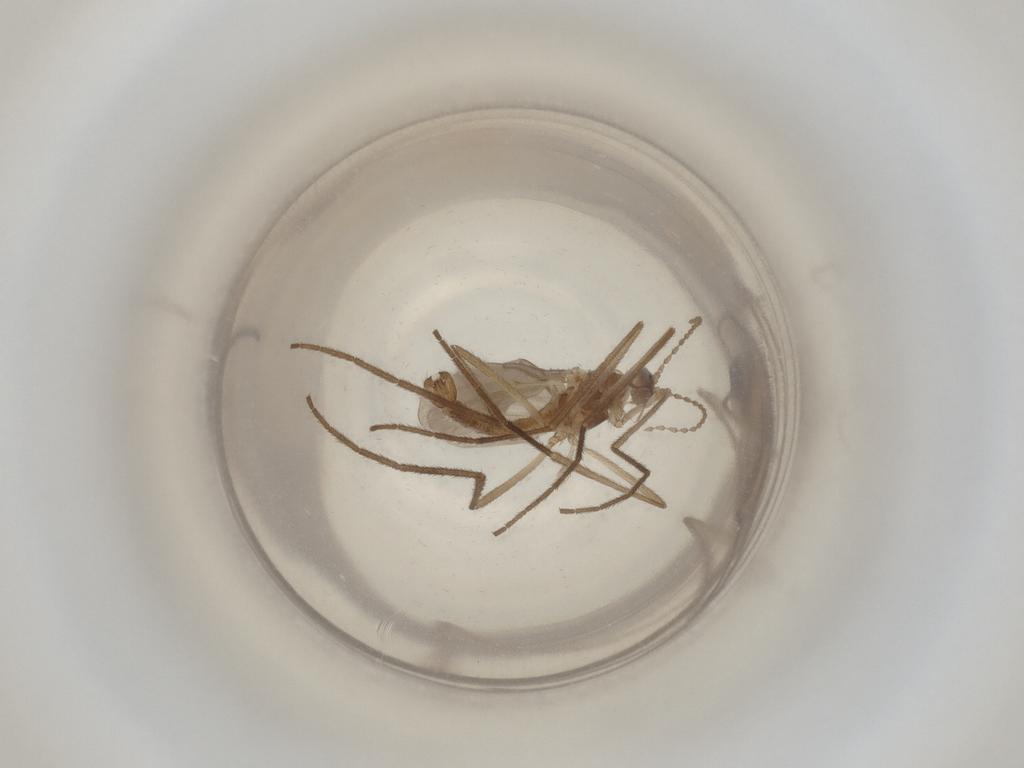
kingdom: Animalia
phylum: Arthropoda
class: Insecta
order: Diptera
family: Cecidomyiidae
